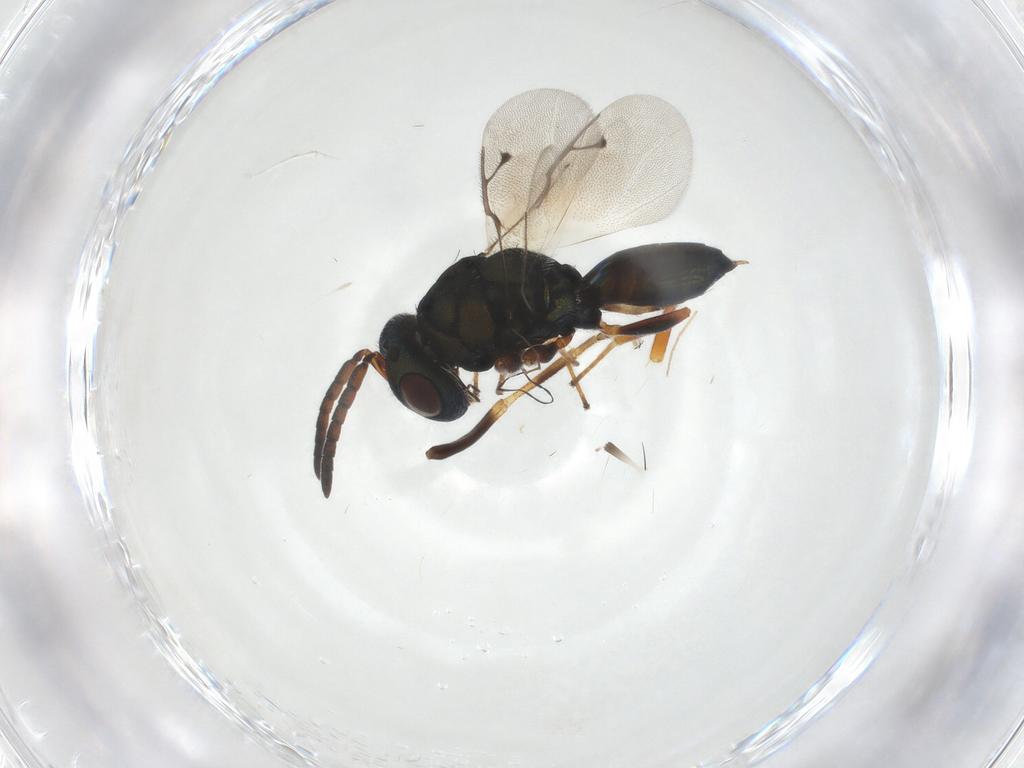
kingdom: Animalia
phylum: Arthropoda
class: Insecta
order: Hymenoptera
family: Pteromalidae
